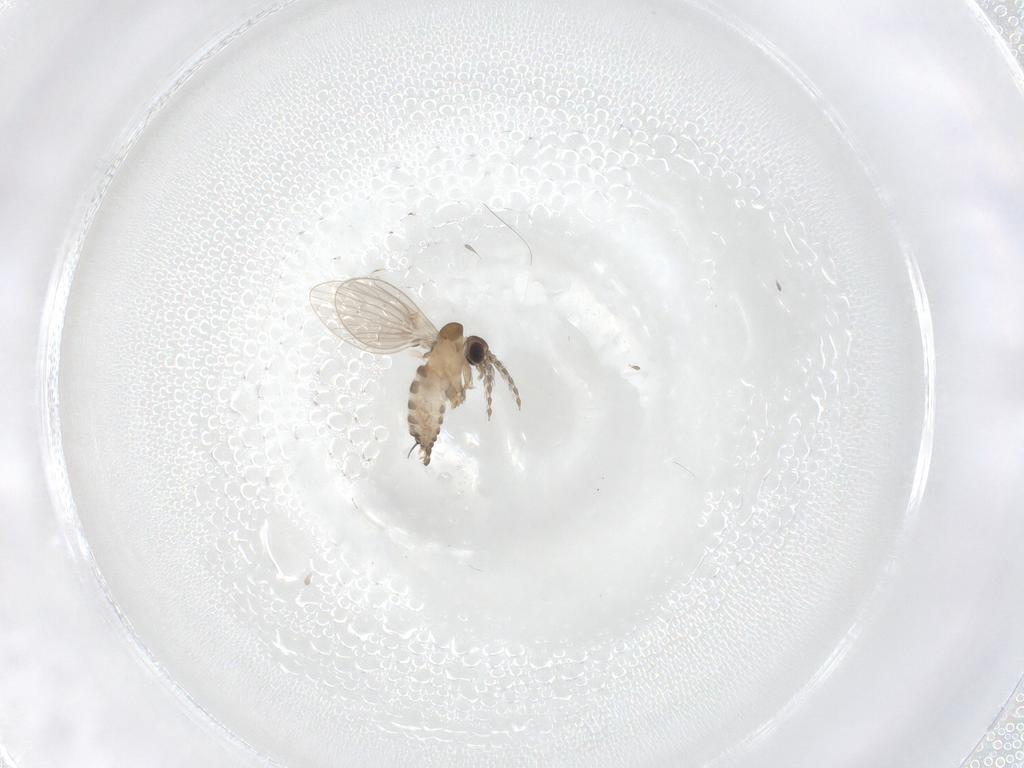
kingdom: Animalia
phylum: Arthropoda
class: Insecta
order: Diptera
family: Psychodidae
